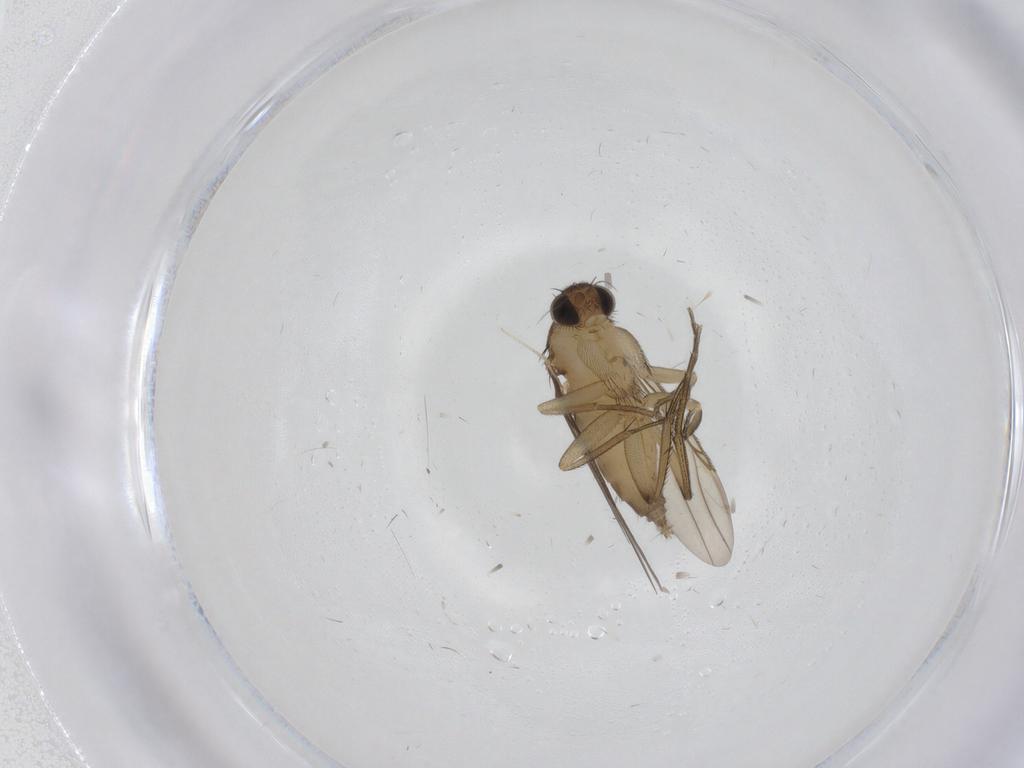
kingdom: Animalia
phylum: Arthropoda
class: Insecta
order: Diptera
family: Phoridae
